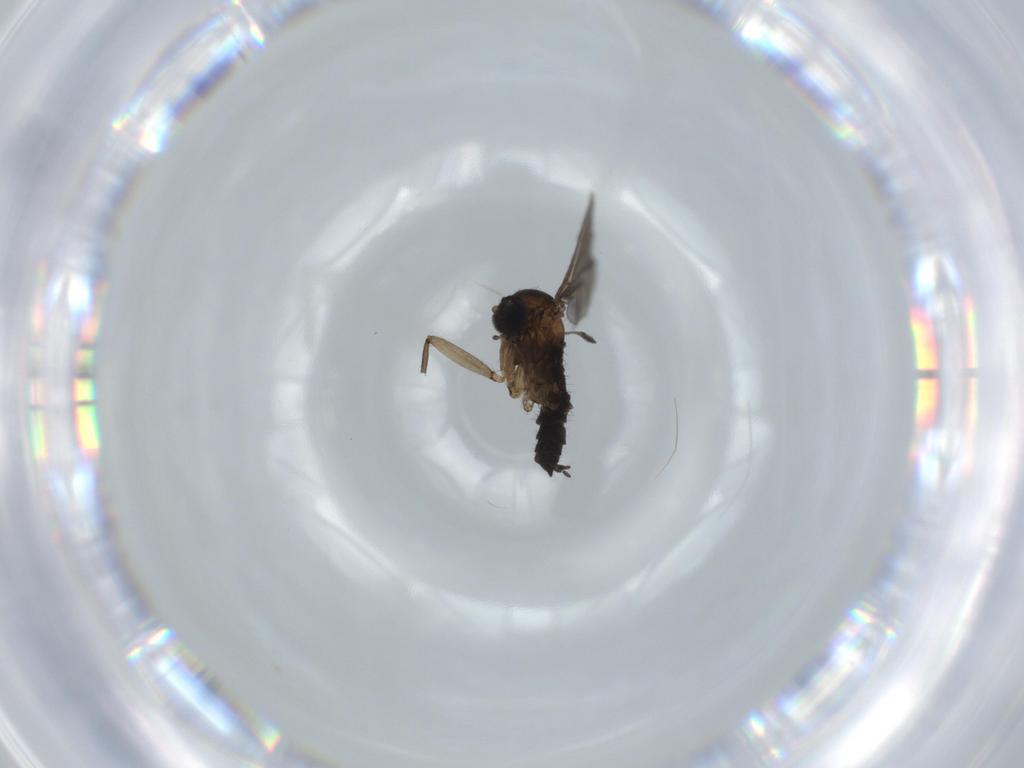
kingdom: Animalia
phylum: Arthropoda
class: Insecta
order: Diptera
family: Sciaridae
